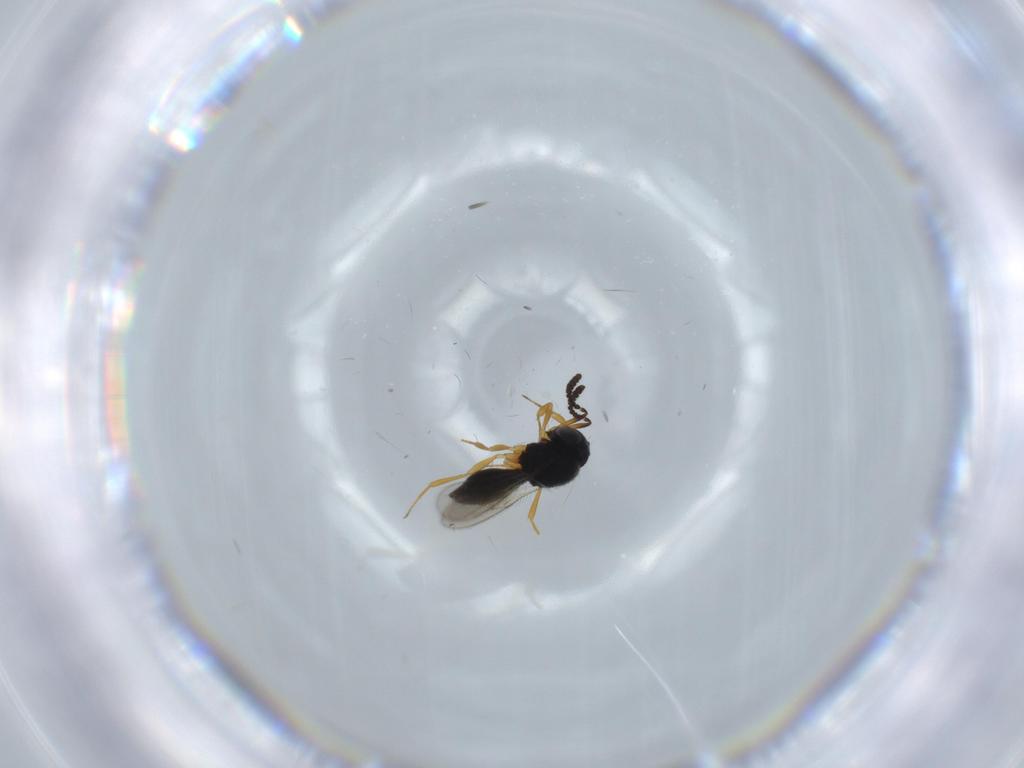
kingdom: Animalia
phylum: Arthropoda
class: Insecta
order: Hymenoptera
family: Scelionidae
